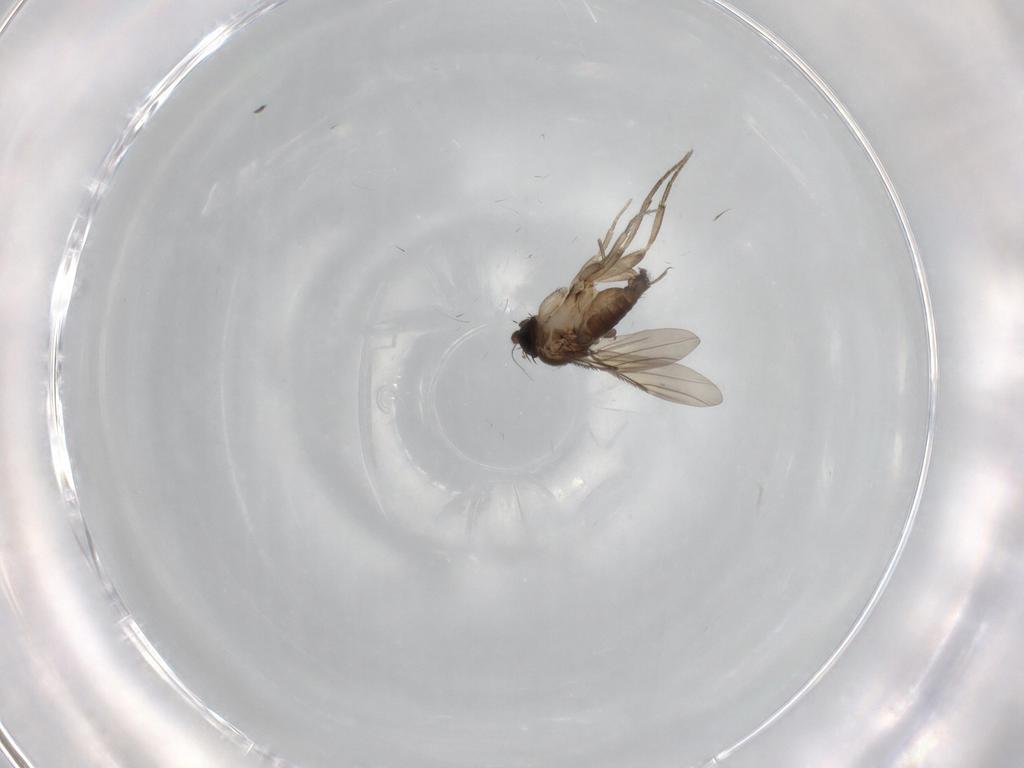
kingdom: Animalia
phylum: Arthropoda
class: Insecta
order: Diptera
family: Phoridae
